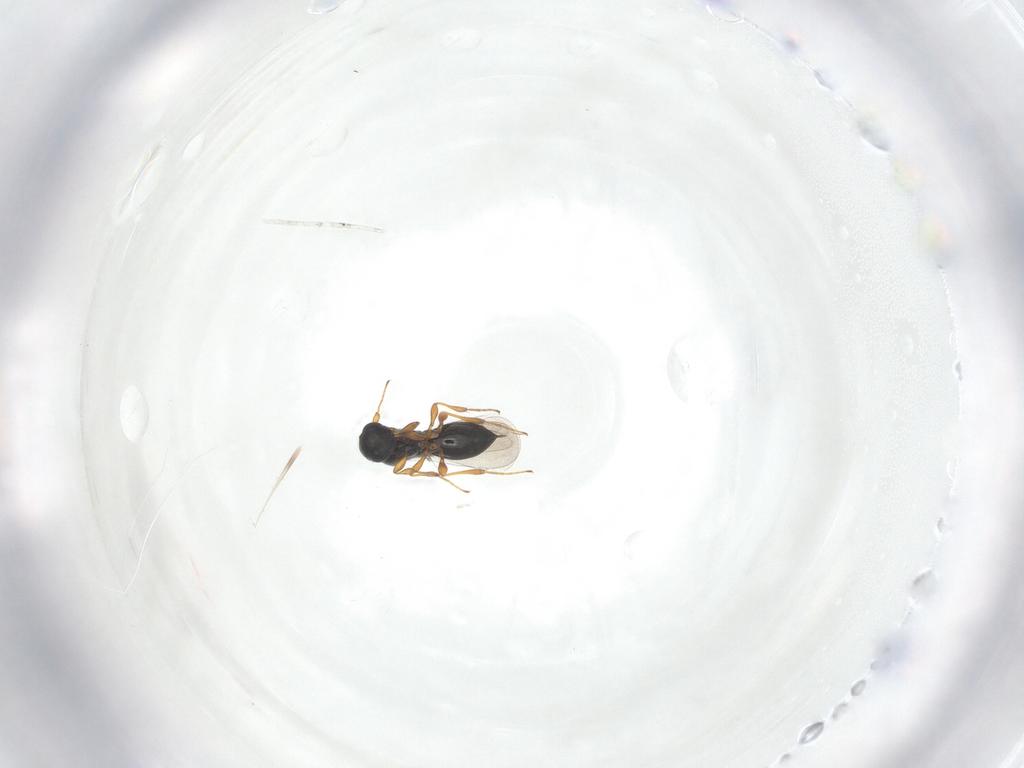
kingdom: Animalia
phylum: Arthropoda
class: Insecta
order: Hymenoptera
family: Platygastridae
